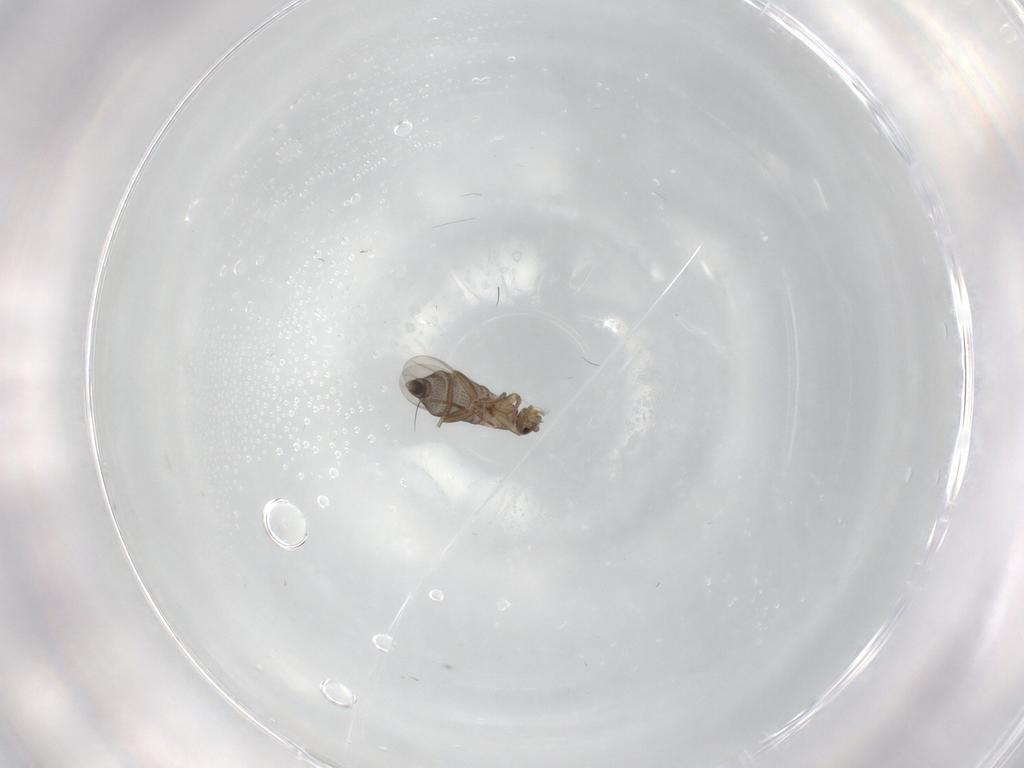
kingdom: Animalia
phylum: Arthropoda
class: Insecta
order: Diptera
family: Phoridae
